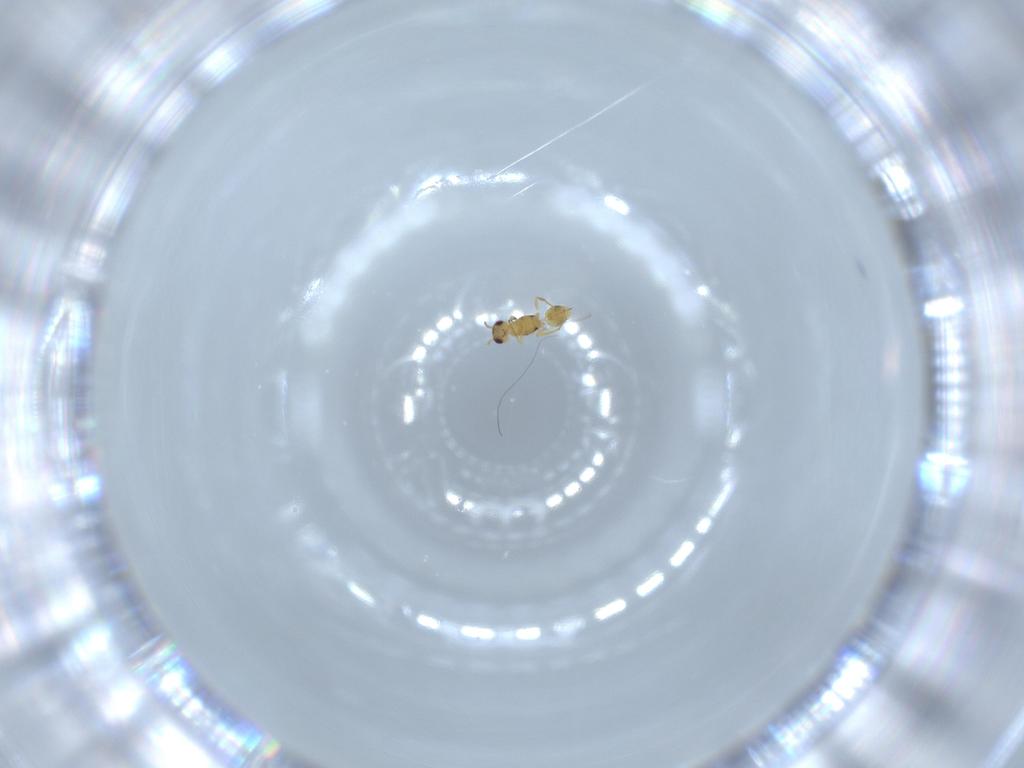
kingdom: Animalia
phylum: Arthropoda
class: Insecta
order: Hymenoptera
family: Mymaridae
